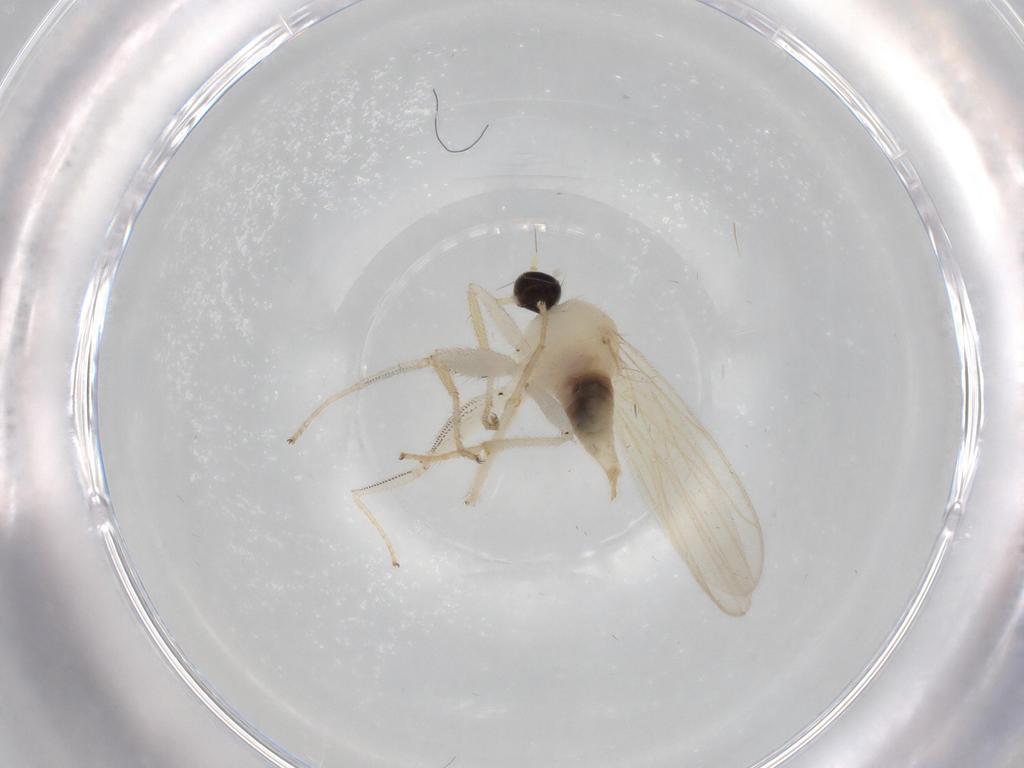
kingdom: Animalia
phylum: Arthropoda
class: Insecta
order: Diptera
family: Hybotidae
